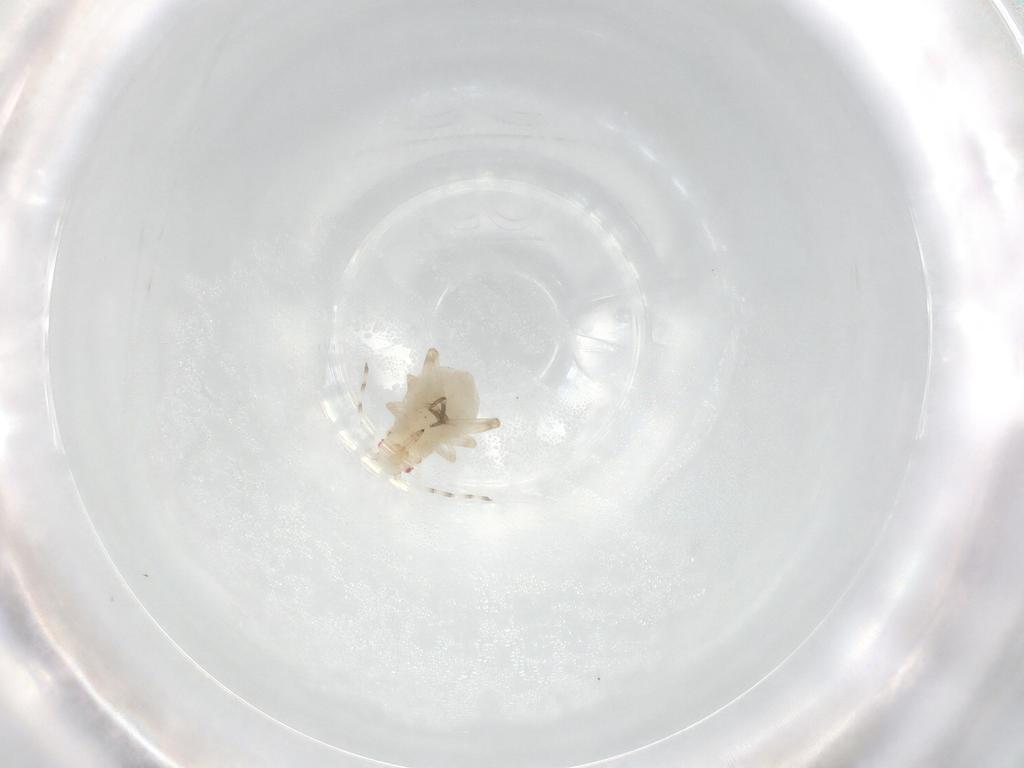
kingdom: Animalia
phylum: Arthropoda
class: Insecta
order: Hemiptera
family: Aphididae
